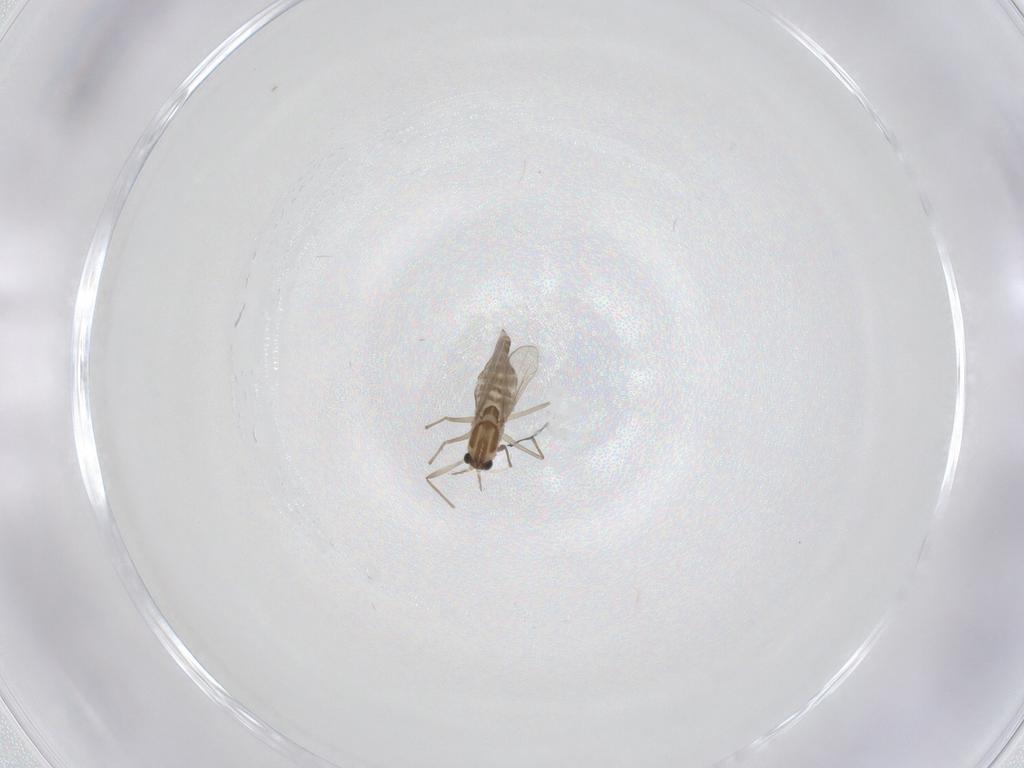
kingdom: Animalia
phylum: Arthropoda
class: Insecta
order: Diptera
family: Chironomidae
